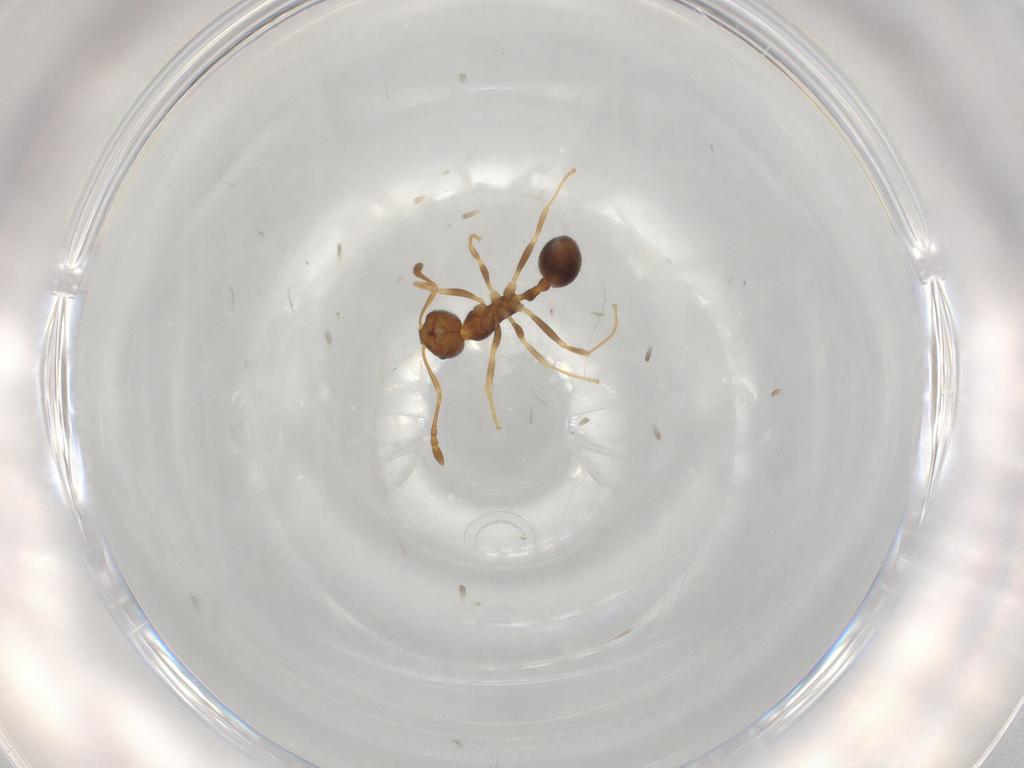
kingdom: Animalia
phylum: Arthropoda
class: Insecta
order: Hymenoptera
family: Formicidae
